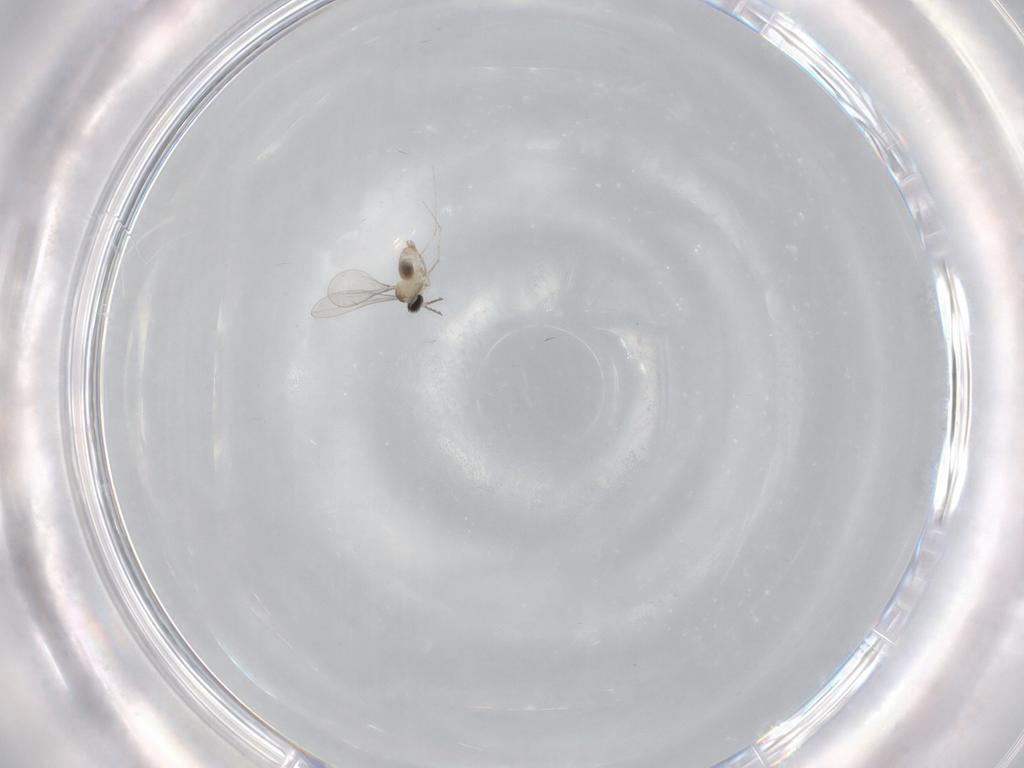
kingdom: Animalia
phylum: Arthropoda
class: Insecta
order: Diptera
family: Cecidomyiidae
